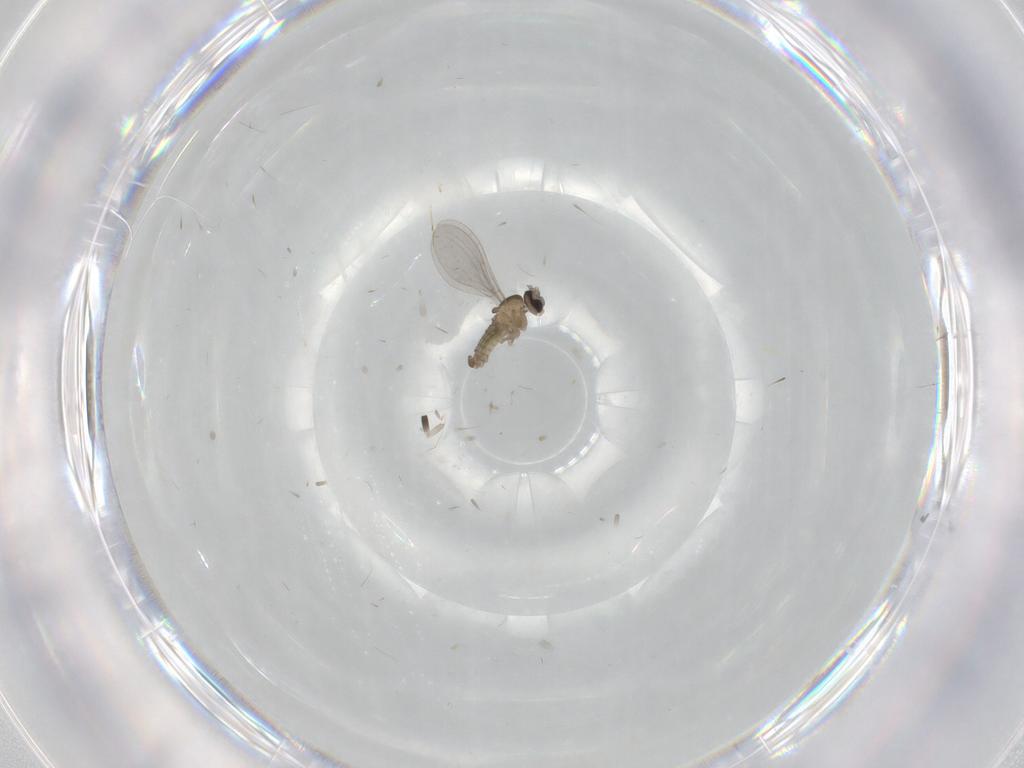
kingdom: Animalia
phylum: Arthropoda
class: Insecta
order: Diptera
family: Cecidomyiidae
